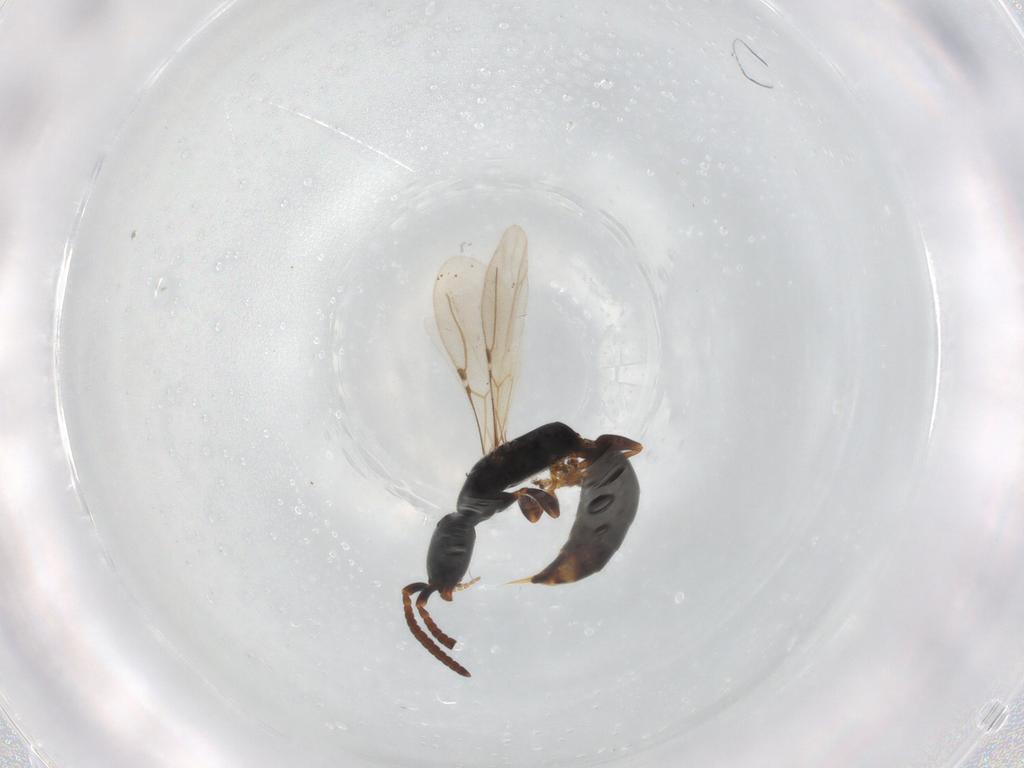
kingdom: Animalia
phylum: Arthropoda
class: Insecta
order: Hymenoptera
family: Bethylidae
